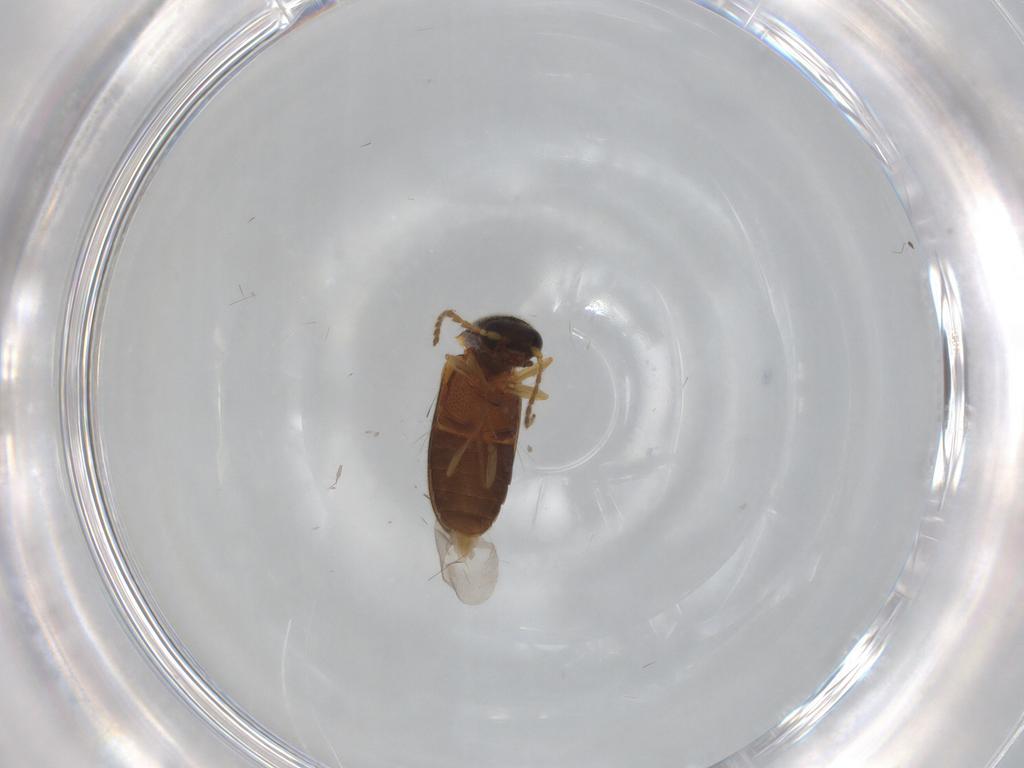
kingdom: Animalia
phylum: Arthropoda
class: Insecta
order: Coleoptera
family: Elateridae
